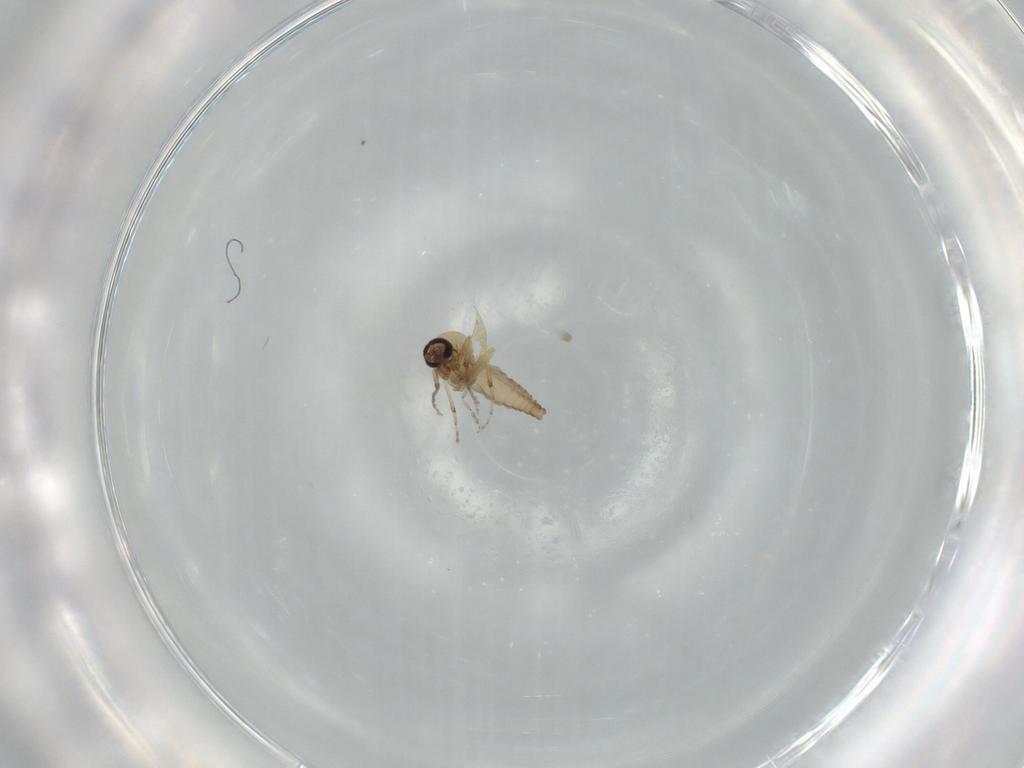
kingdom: Animalia
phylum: Arthropoda
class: Insecta
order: Diptera
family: Ceratopogonidae
